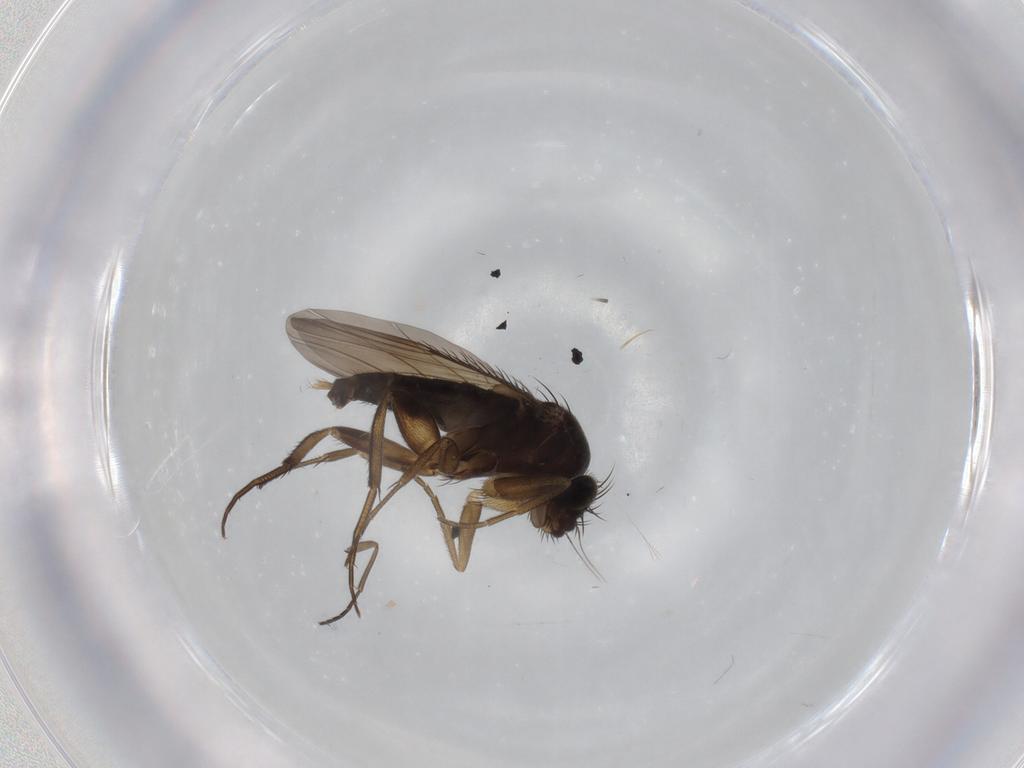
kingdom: Animalia
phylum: Arthropoda
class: Insecta
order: Diptera
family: Phoridae
